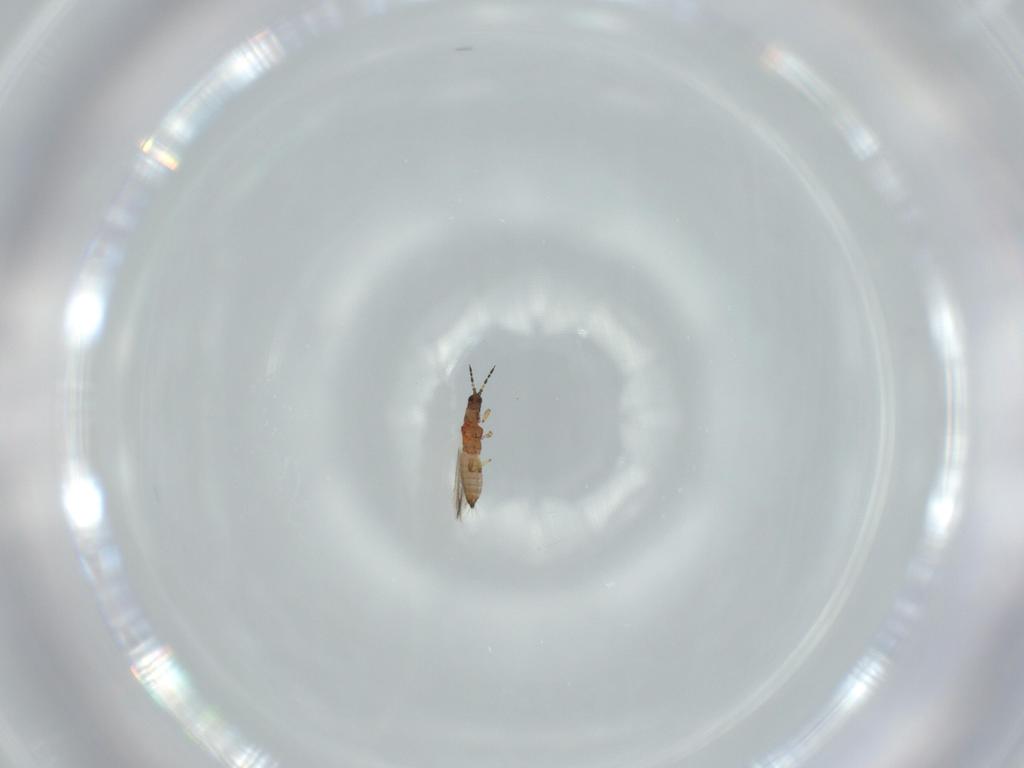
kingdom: Animalia
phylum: Arthropoda
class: Insecta
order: Thysanoptera
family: Thripidae
